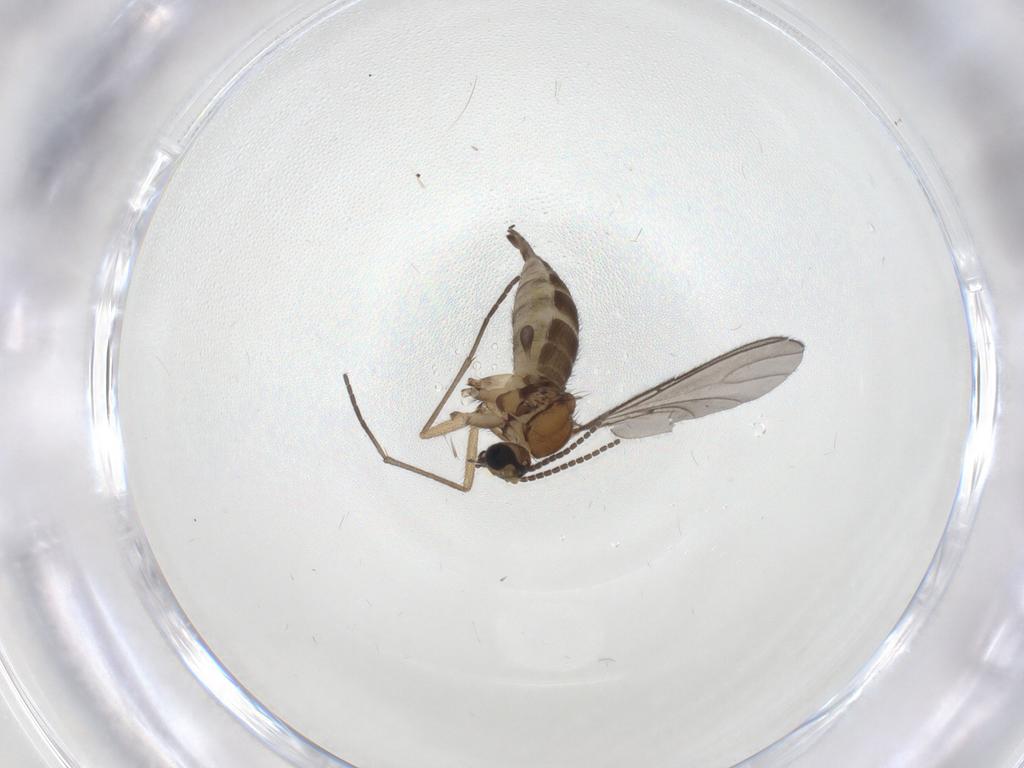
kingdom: Animalia
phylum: Arthropoda
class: Insecta
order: Diptera
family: Sciaridae
